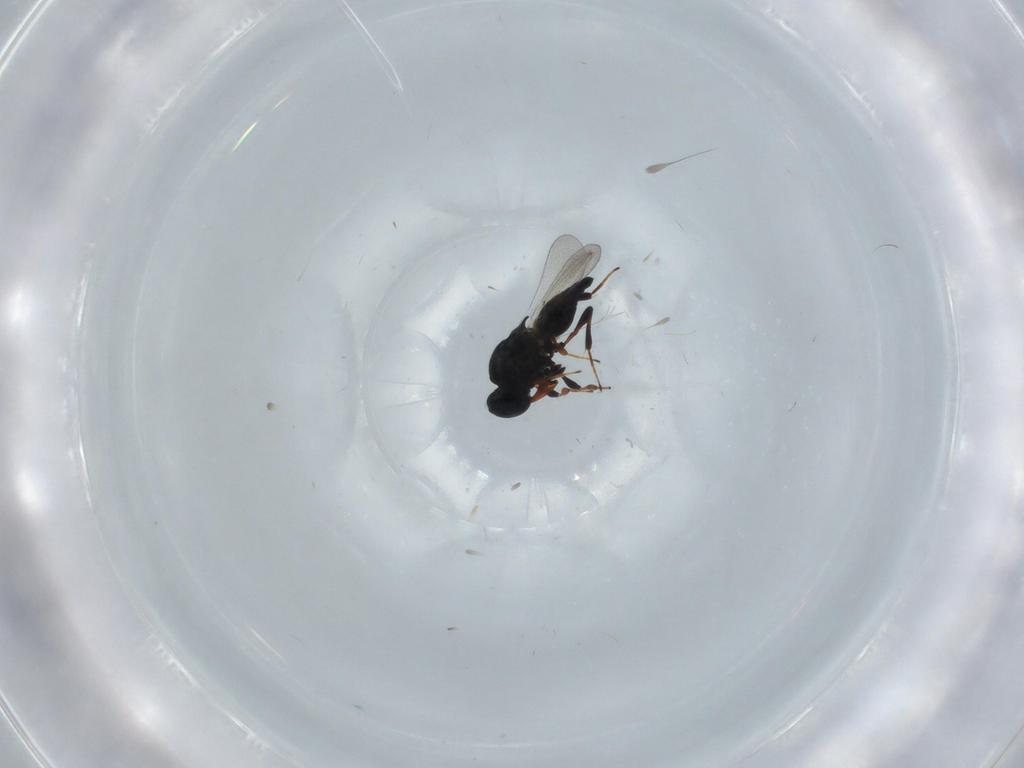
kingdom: Animalia
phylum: Arthropoda
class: Insecta
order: Hymenoptera
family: Platygastridae
